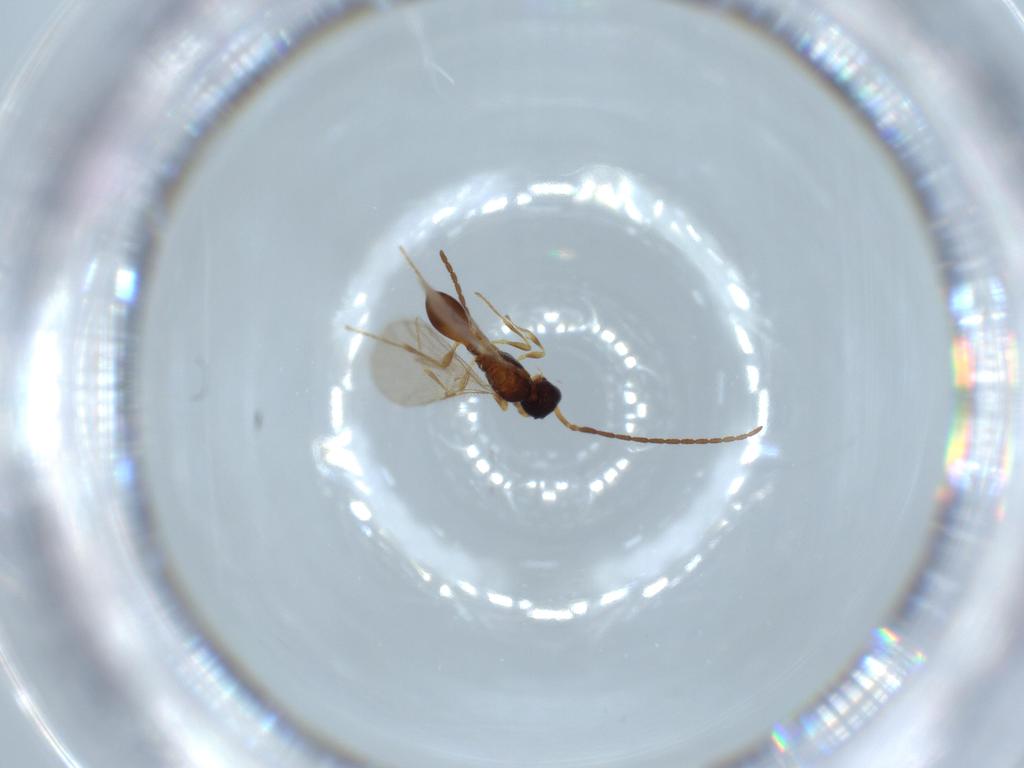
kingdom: Animalia
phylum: Arthropoda
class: Insecta
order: Hymenoptera
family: Diapriidae
